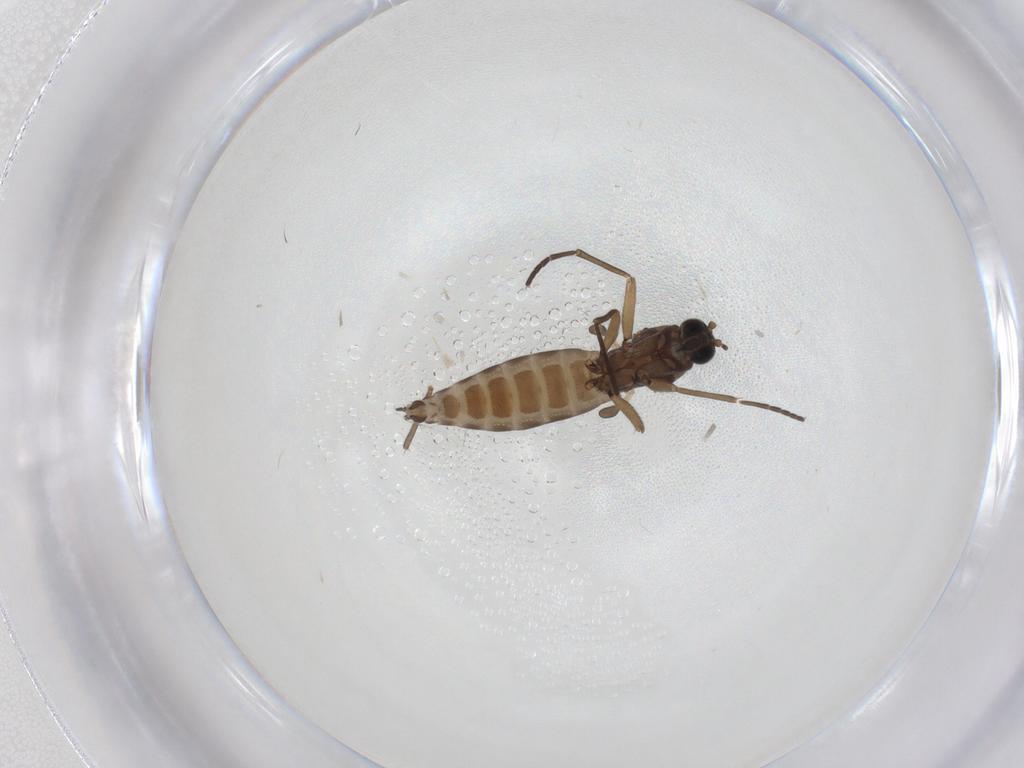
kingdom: Animalia
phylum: Arthropoda
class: Insecta
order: Diptera
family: Sciaridae
